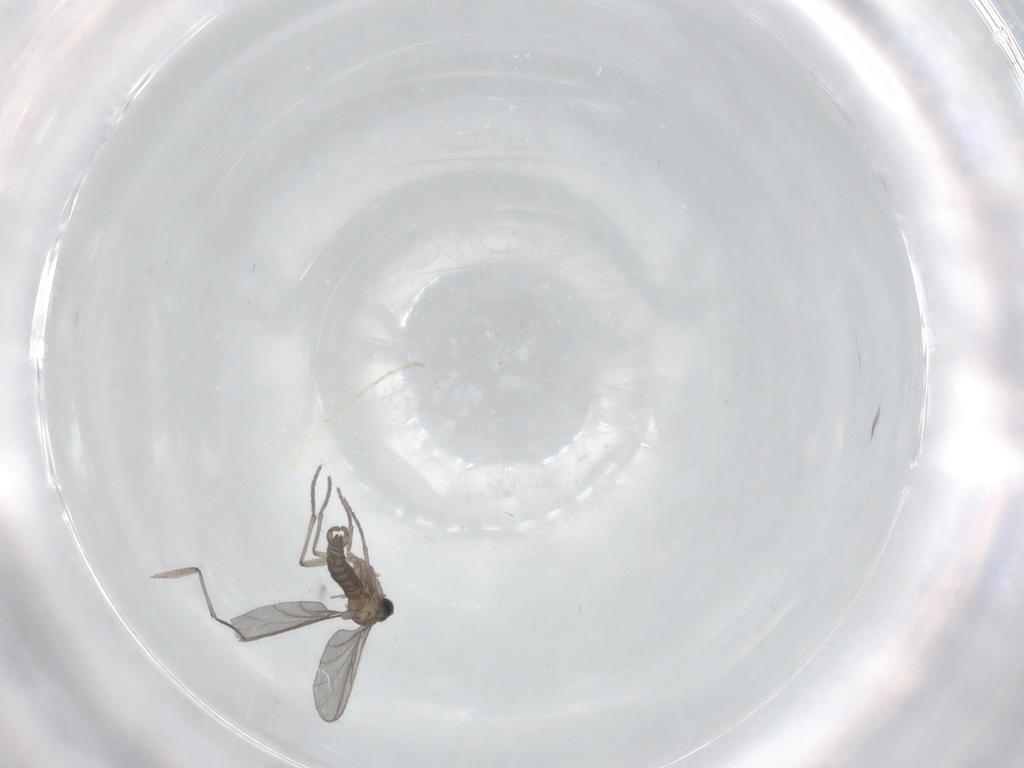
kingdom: Animalia
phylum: Arthropoda
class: Insecta
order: Diptera
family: Sciaridae
